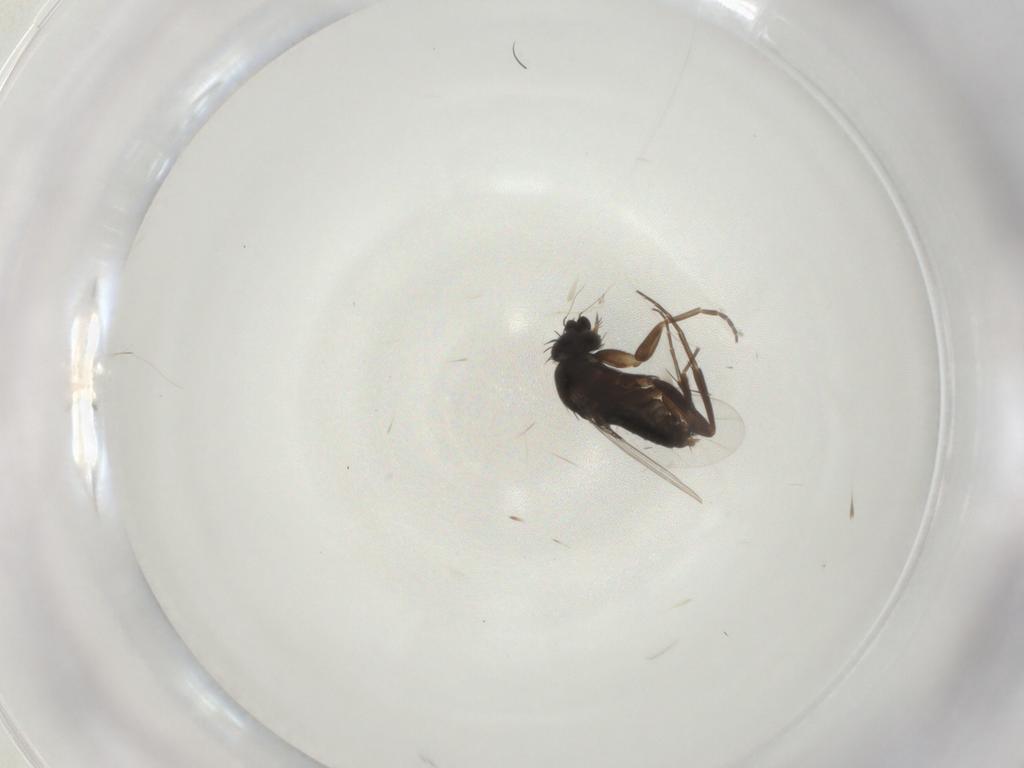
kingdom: Animalia
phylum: Arthropoda
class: Insecta
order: Diptera
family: Phoridae
